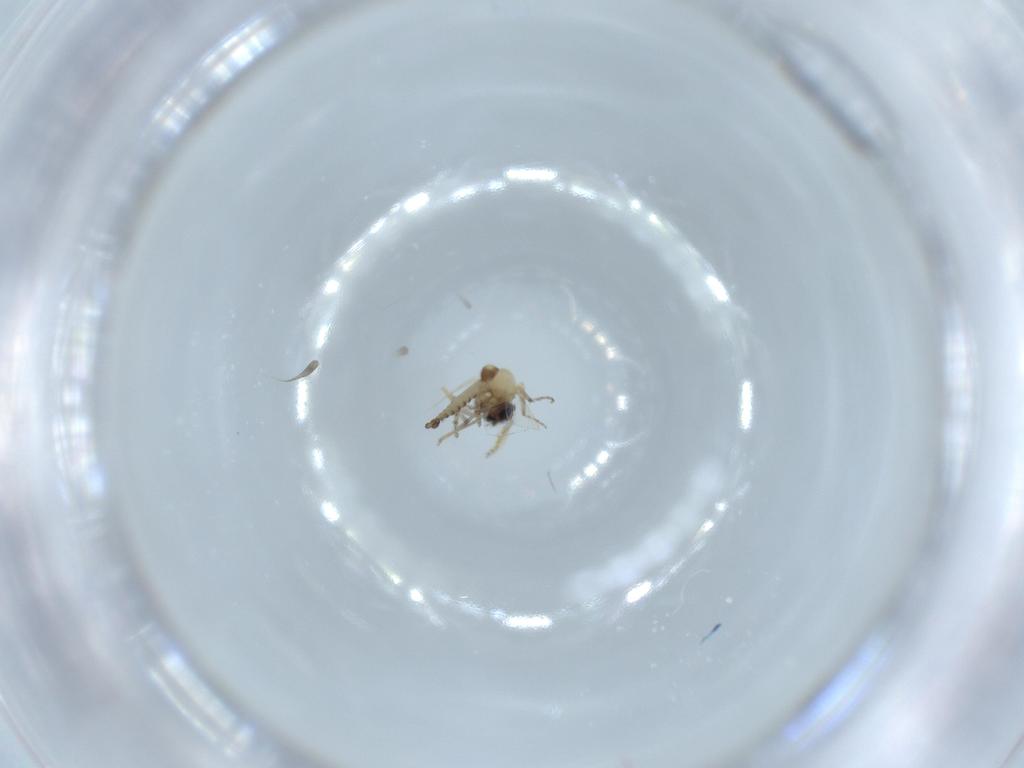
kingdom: Animalia
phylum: Arthropoda
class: Insecta
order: Diptera
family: Ceratopogonidae
